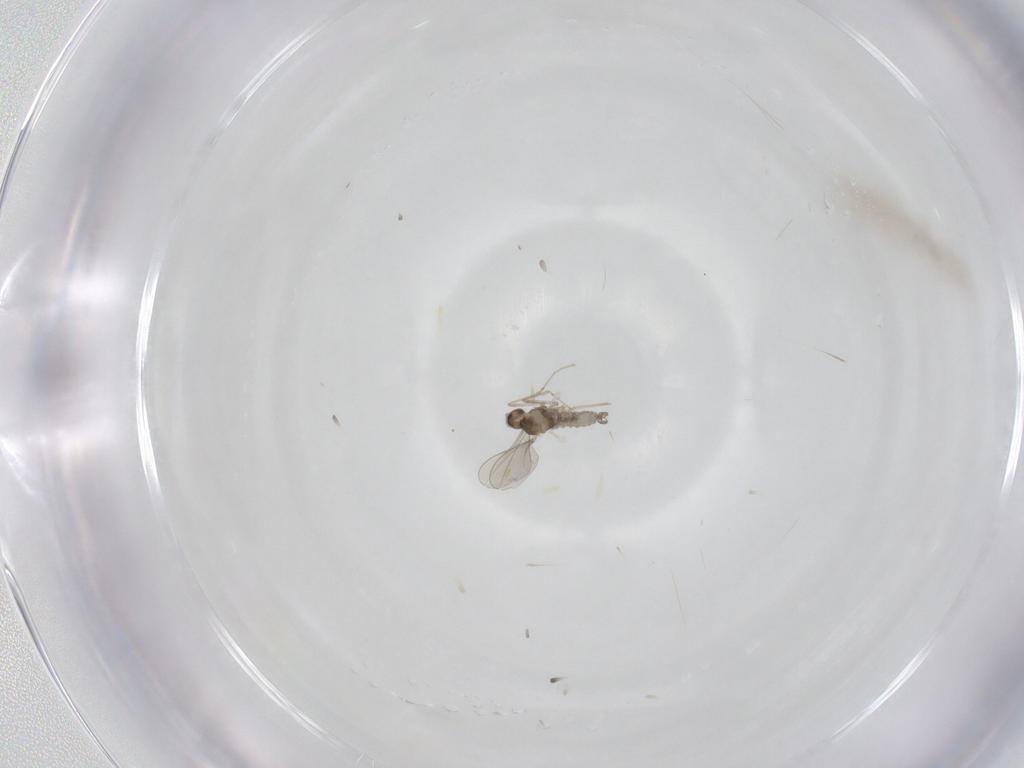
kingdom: Animalia
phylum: Arthropoda
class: Insecta
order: Diptera
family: Cecidomyiidae
